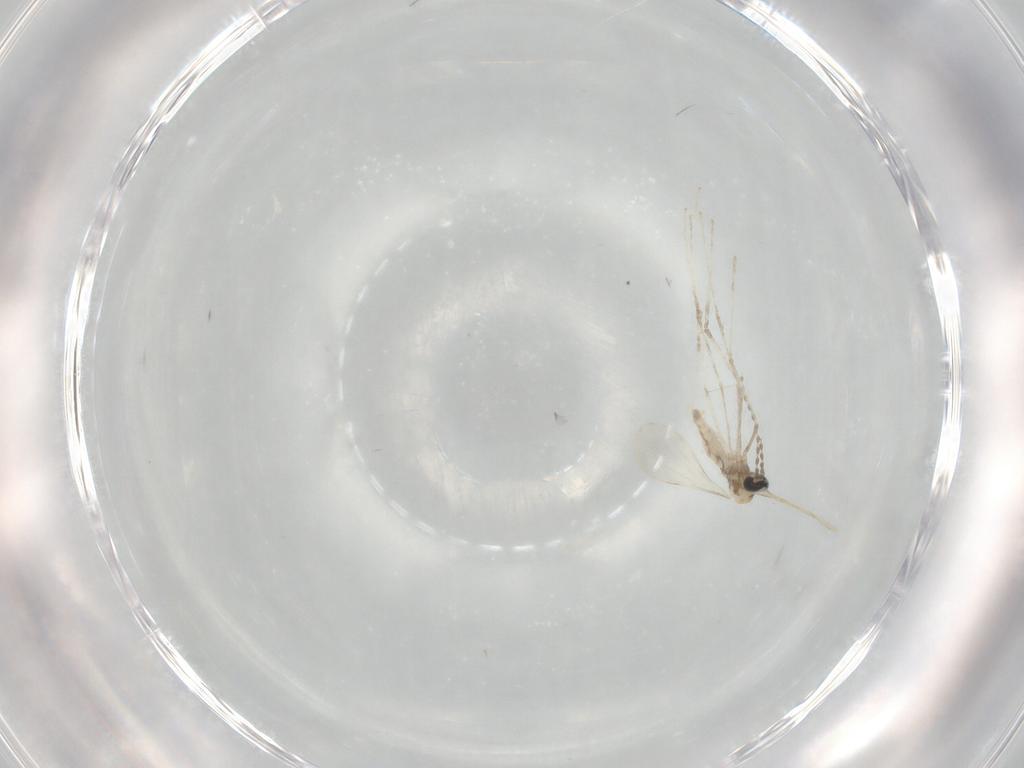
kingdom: Animalia
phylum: Arthropoda
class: Insecta
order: Diptera
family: Cecidomyiidae
